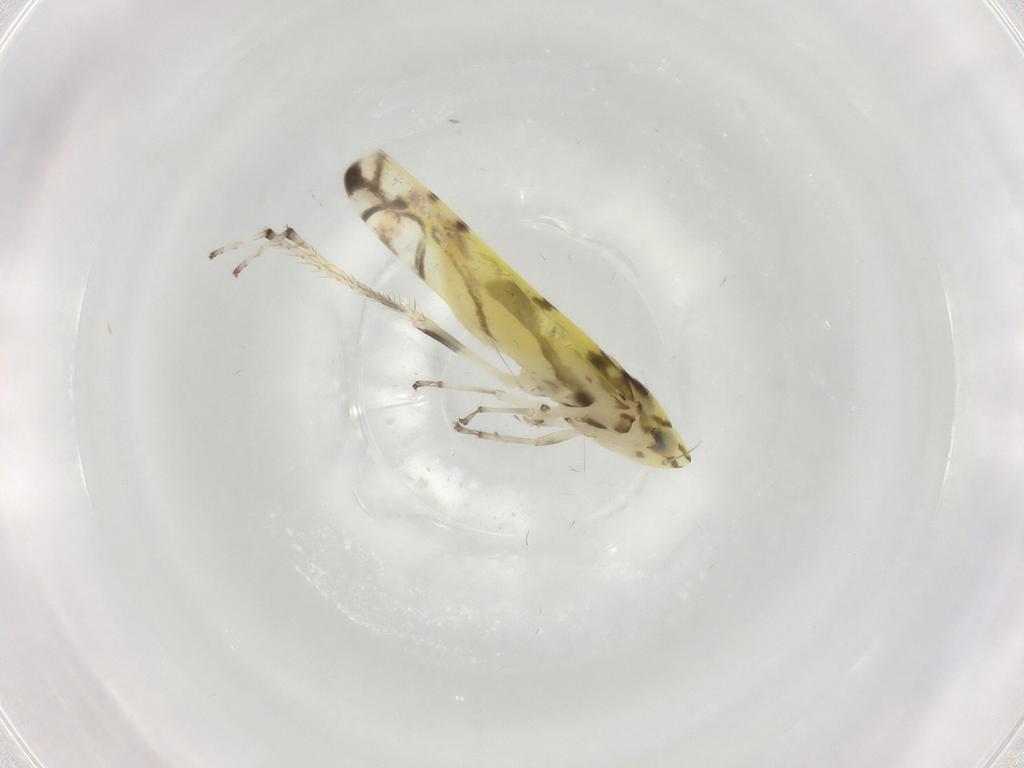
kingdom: Animalia
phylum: Arthropoda
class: Insecta
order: Hemiptera
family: Cicadellidae
